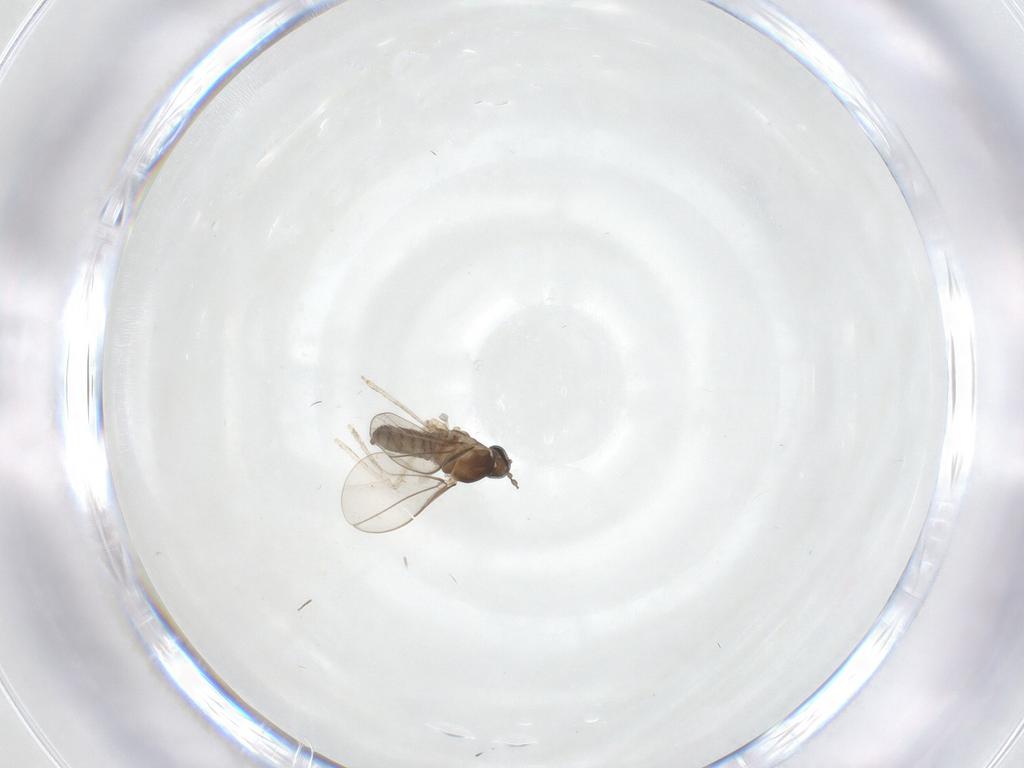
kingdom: Animalia
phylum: Arthropoda
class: Insecta
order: Diptera
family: Cecidomyiidae
